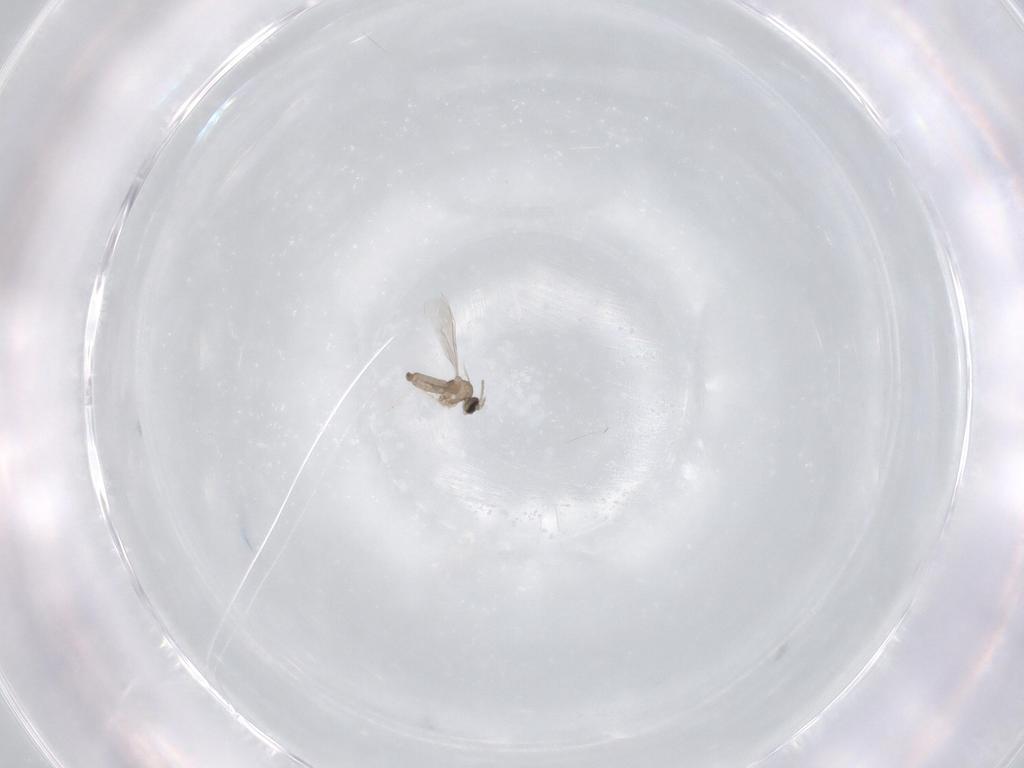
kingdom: Animalia
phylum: Arthropoda
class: Insecta
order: Diptera
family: Cecidomyiidae
